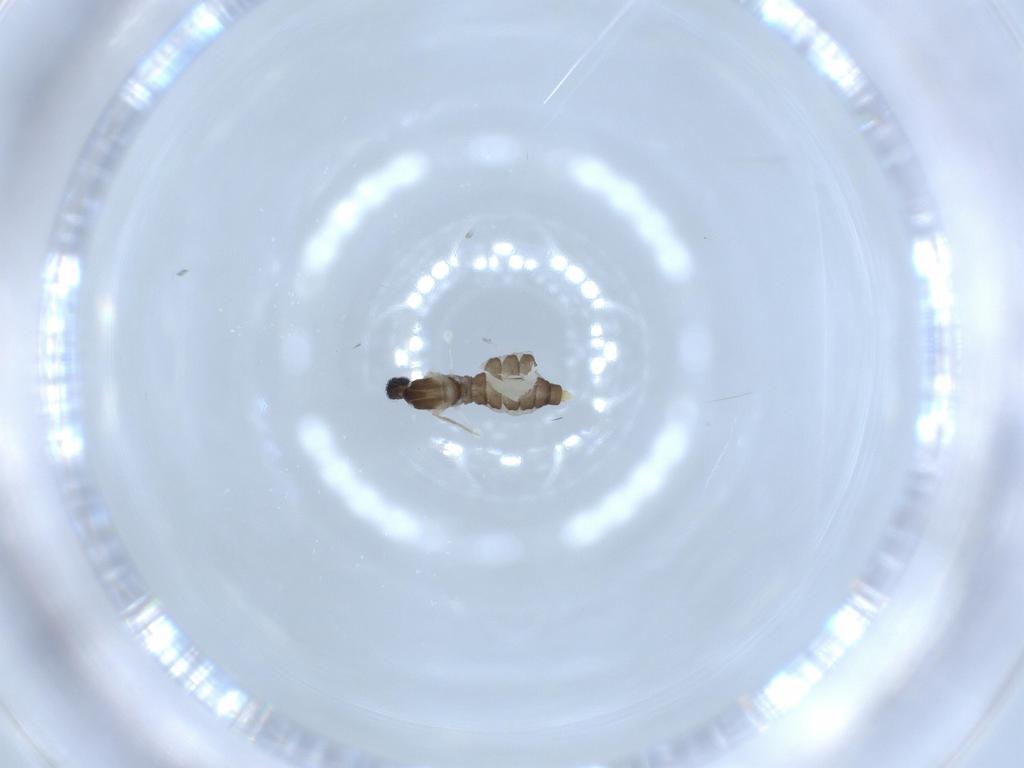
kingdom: Animalia
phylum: Arthropoda
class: Insecta
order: Diptera
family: Cecidomyiidae
